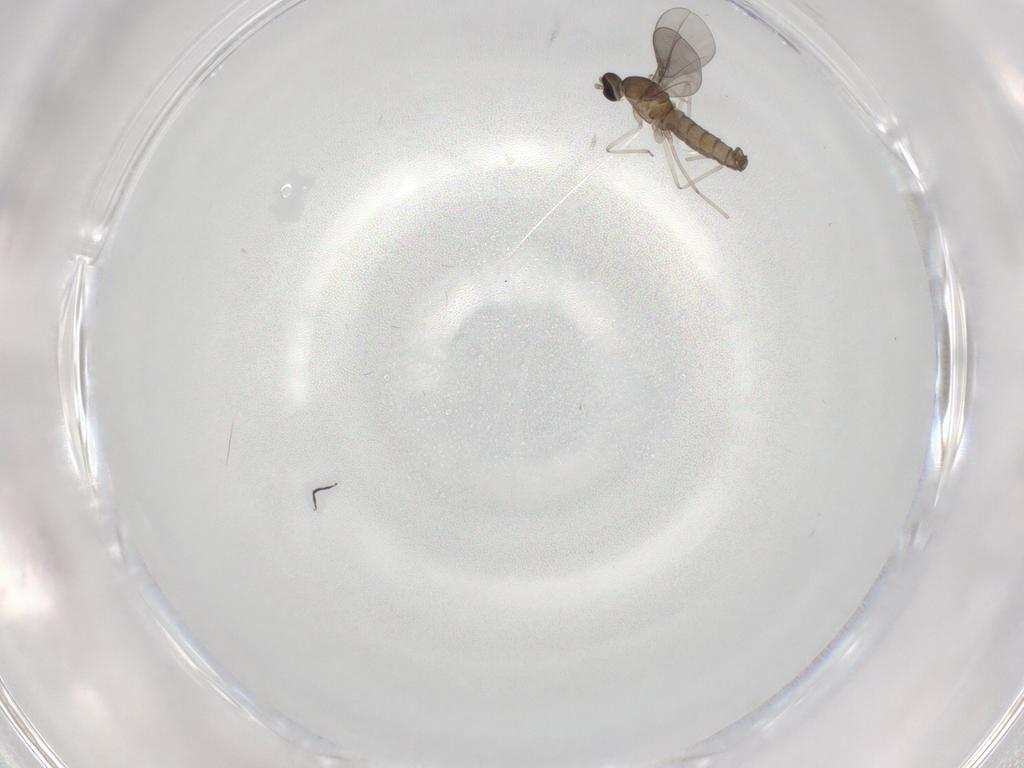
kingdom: Animalia
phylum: Arthropoda
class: Insecta
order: Diptera
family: Cecidomyiidae
